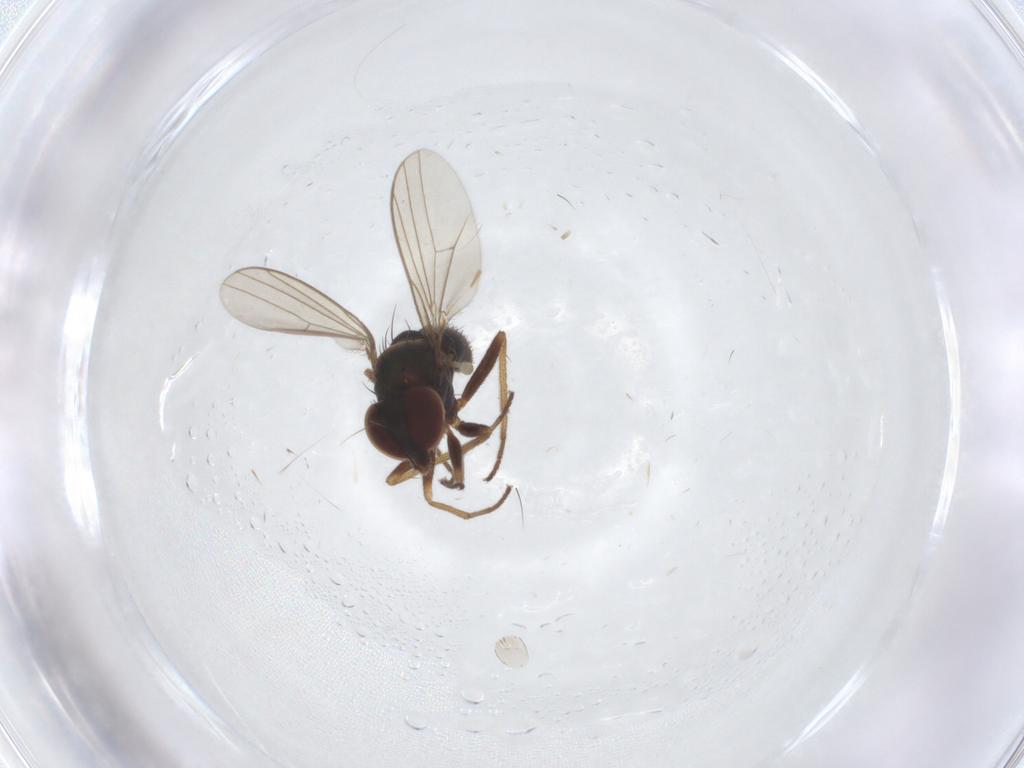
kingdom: Animalia
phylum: Arthropoda
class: Insecta
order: Diptera
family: Dolichopodidae
